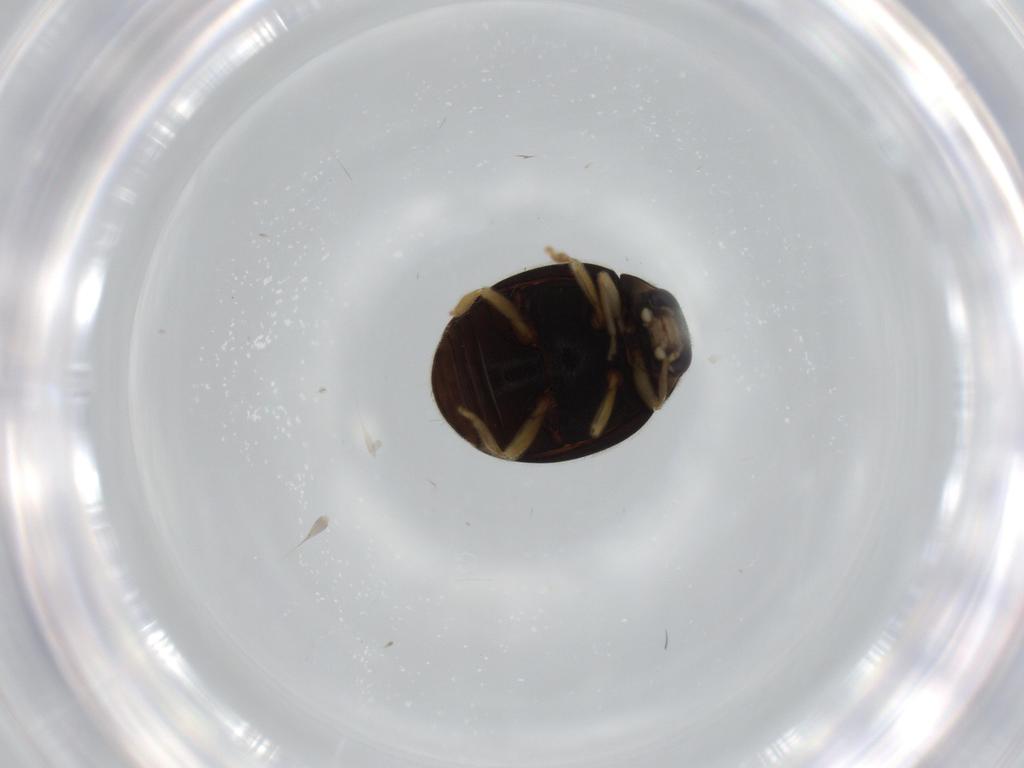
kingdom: Animalia
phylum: Arthropoda
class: Insecta
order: Coleoptera
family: Coccinellidae
